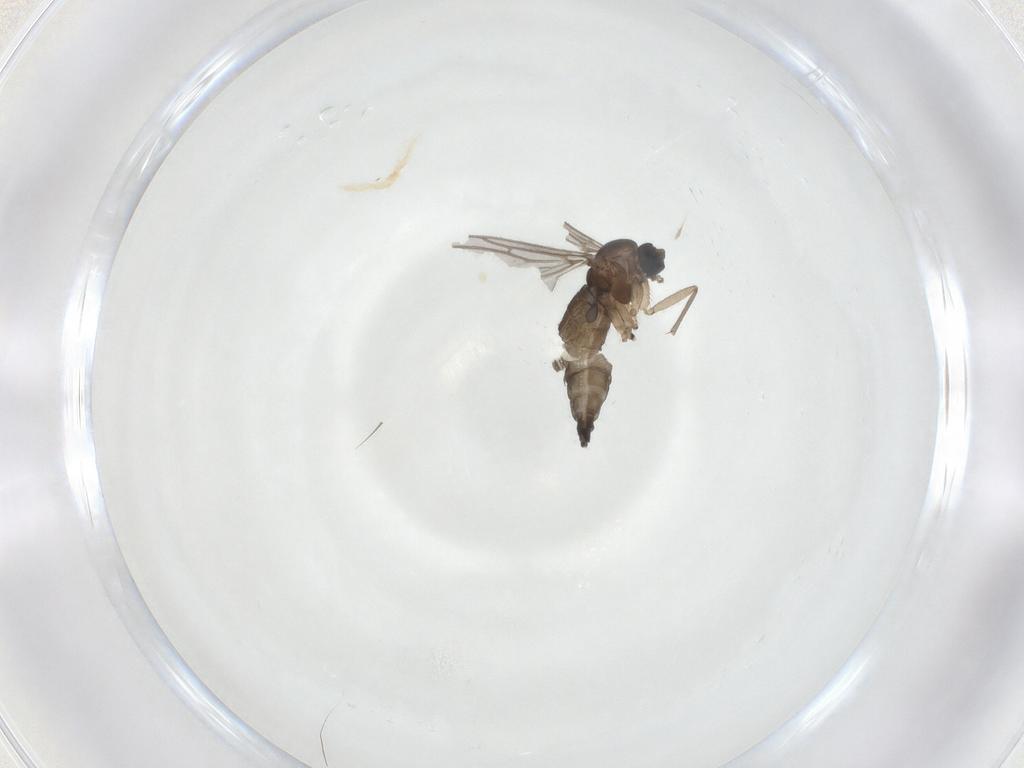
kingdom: Animalia
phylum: Arthropoda
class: Insecta
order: Diptera
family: Sciaridae
